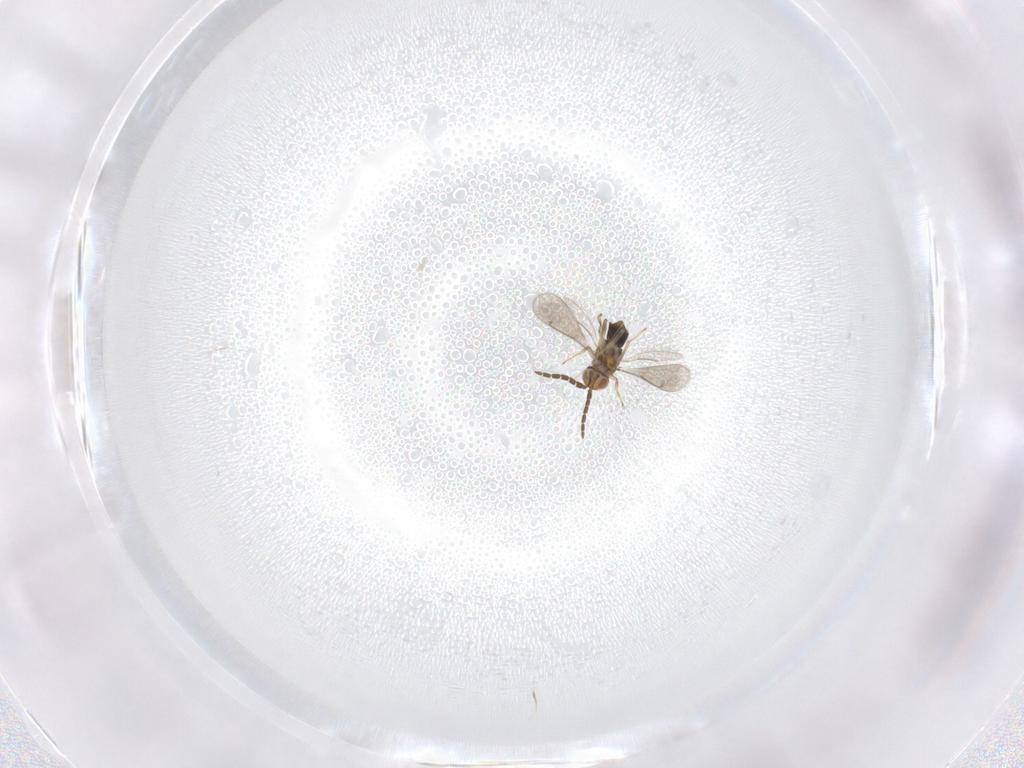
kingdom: Animalia
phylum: Arthropoda
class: Insecta
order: Hymenoptera
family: Aphelinidae
